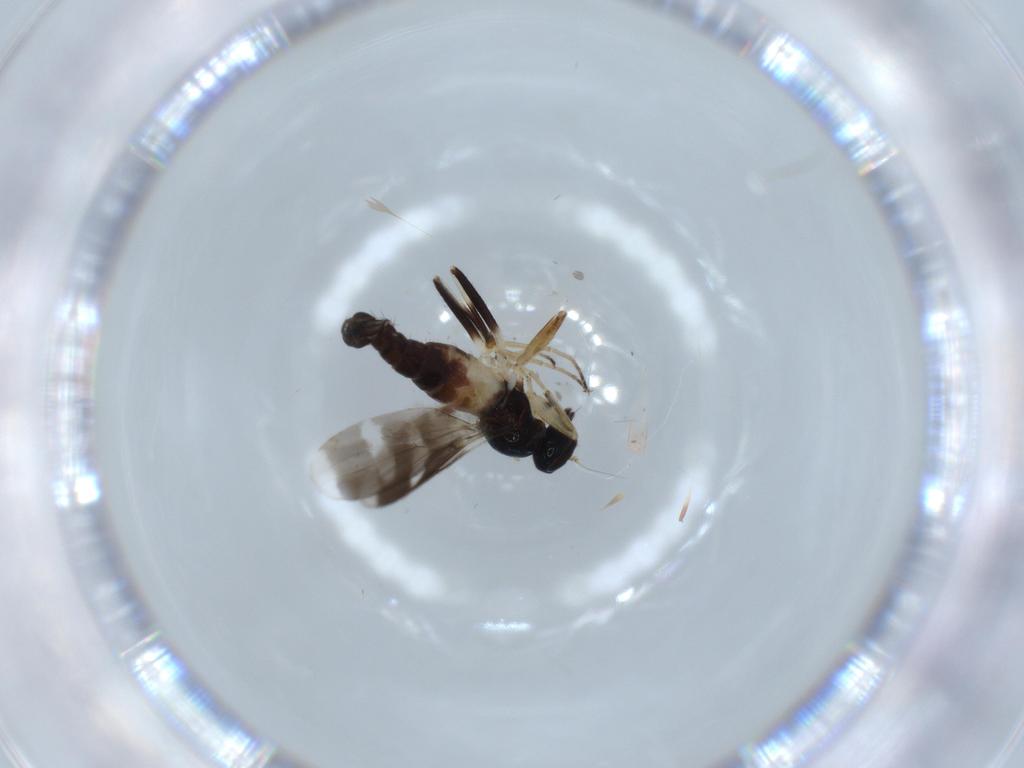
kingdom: Animalia
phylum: Arthropoda
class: Insecta
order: Diptera
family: Hybotidae
